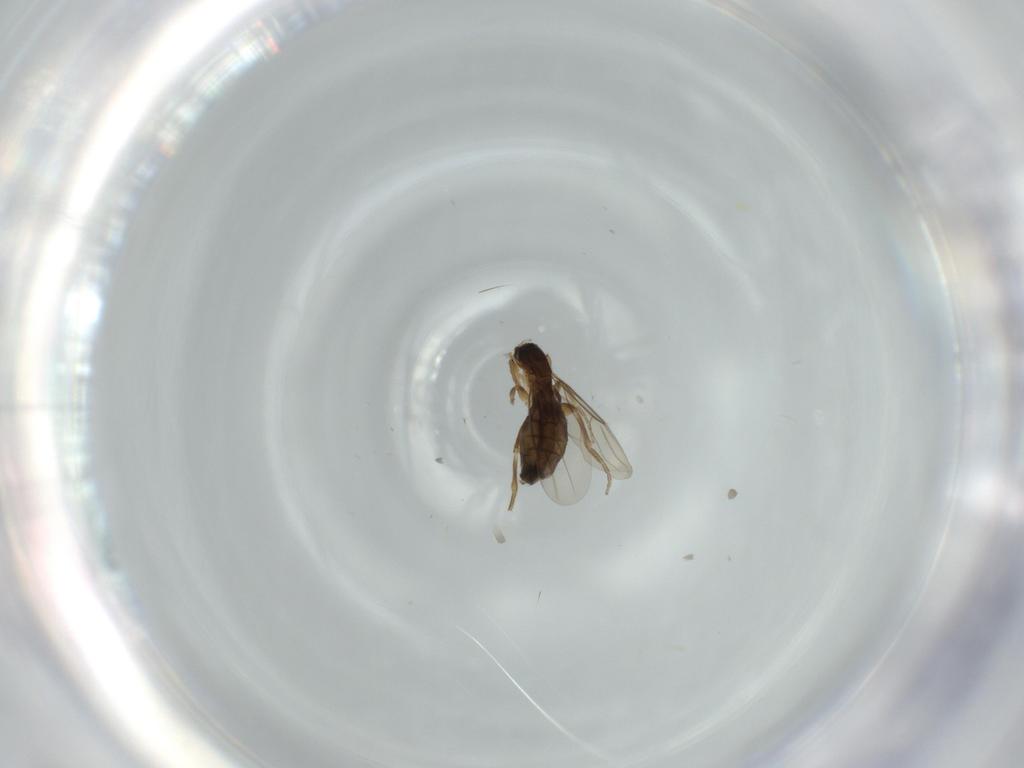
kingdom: Animalia
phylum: Arthropoda
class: Insecta
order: Diptera
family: Phoridae
